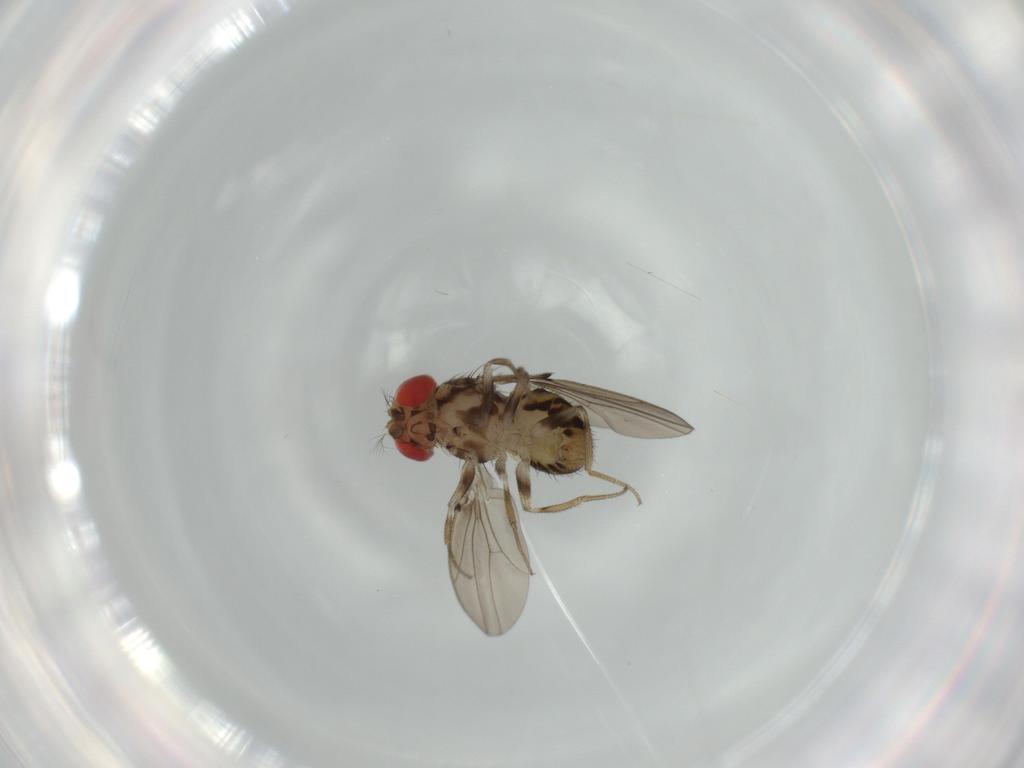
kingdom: Animalia
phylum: Arthropoda
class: Insecta
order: Diptera
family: Drosophilidae
